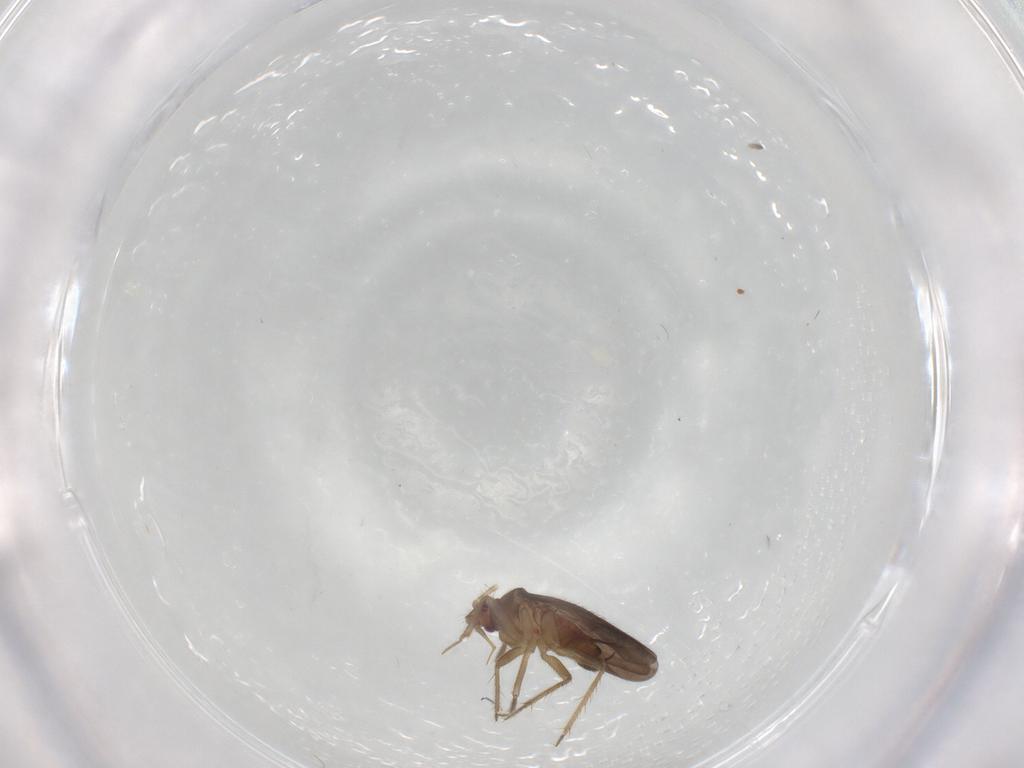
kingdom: Animalia
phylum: Arthropoda
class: Insecta
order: Hemiptera
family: Ceratocombidae
